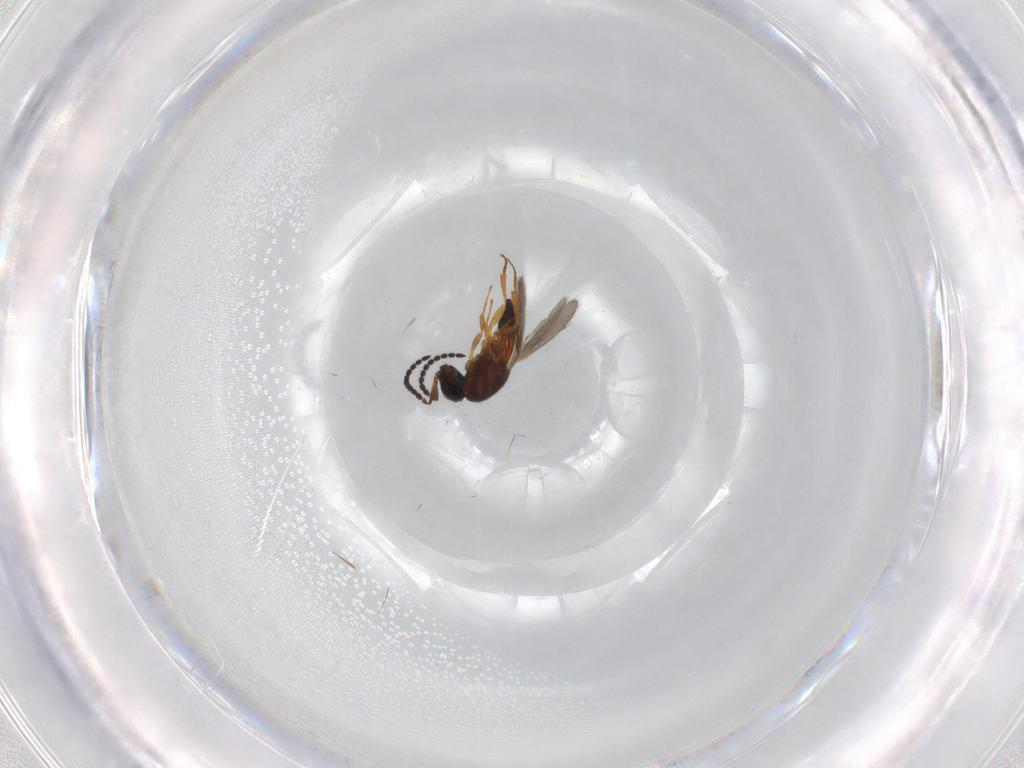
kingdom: Animalia
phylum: Arthropoda
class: Insecta
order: Hymenoptera
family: Scelionidae
